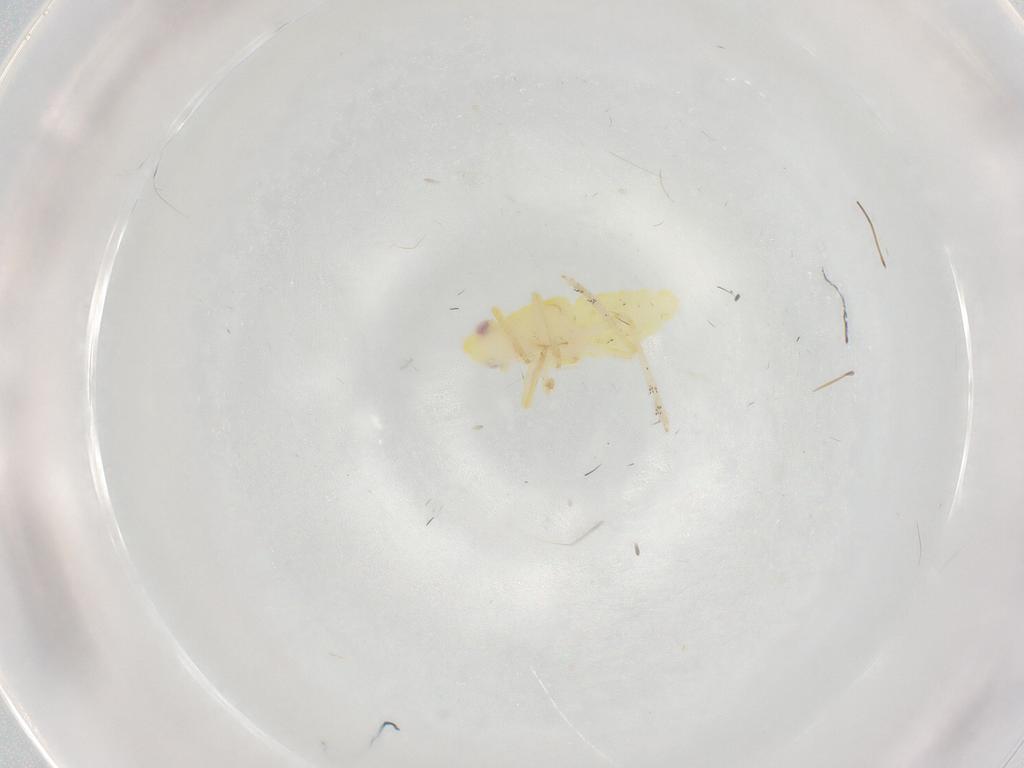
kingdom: Animalia
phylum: Arthropoda
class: Insecta
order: Hemiptera
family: Tropiduchidae
